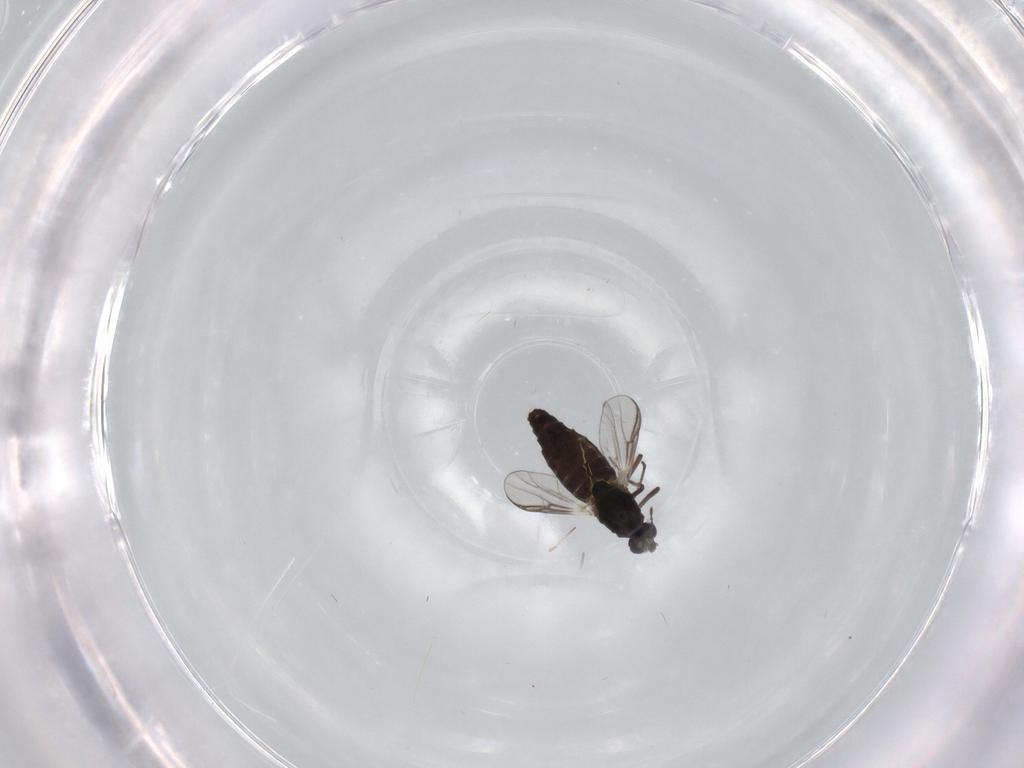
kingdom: Animalia
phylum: Arthropoda
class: Insecta
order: Diptera
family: Chironomidae
